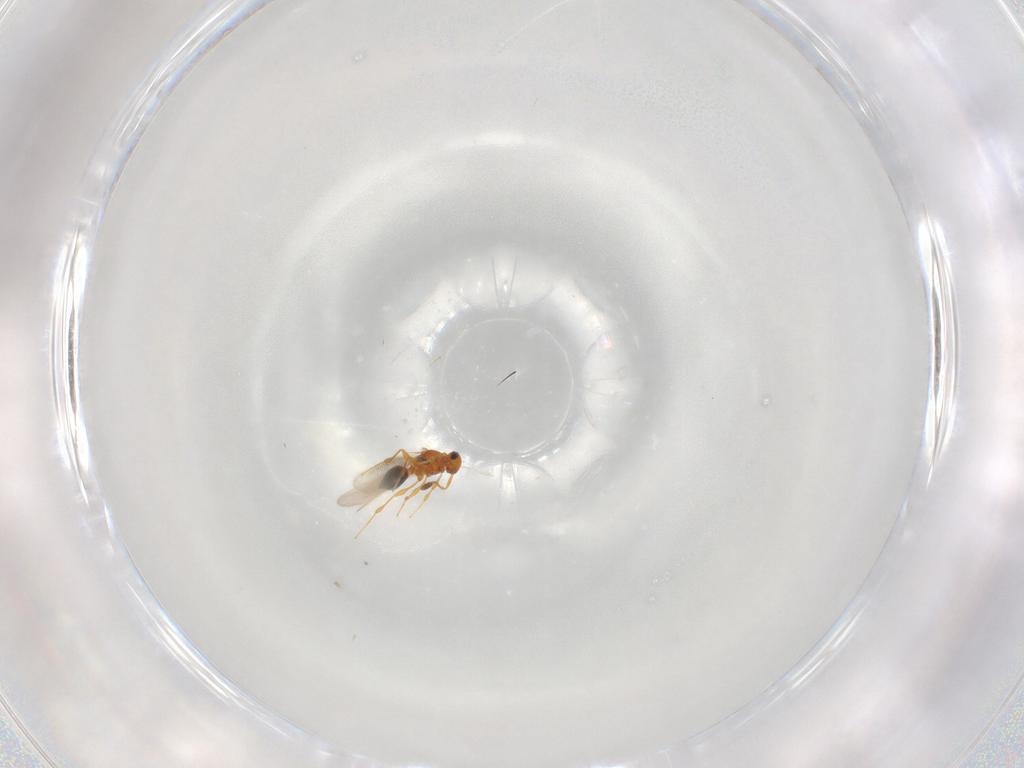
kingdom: Animalia
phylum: Arthropoda
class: Insecta
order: Hymenoptera
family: Platygastridae
